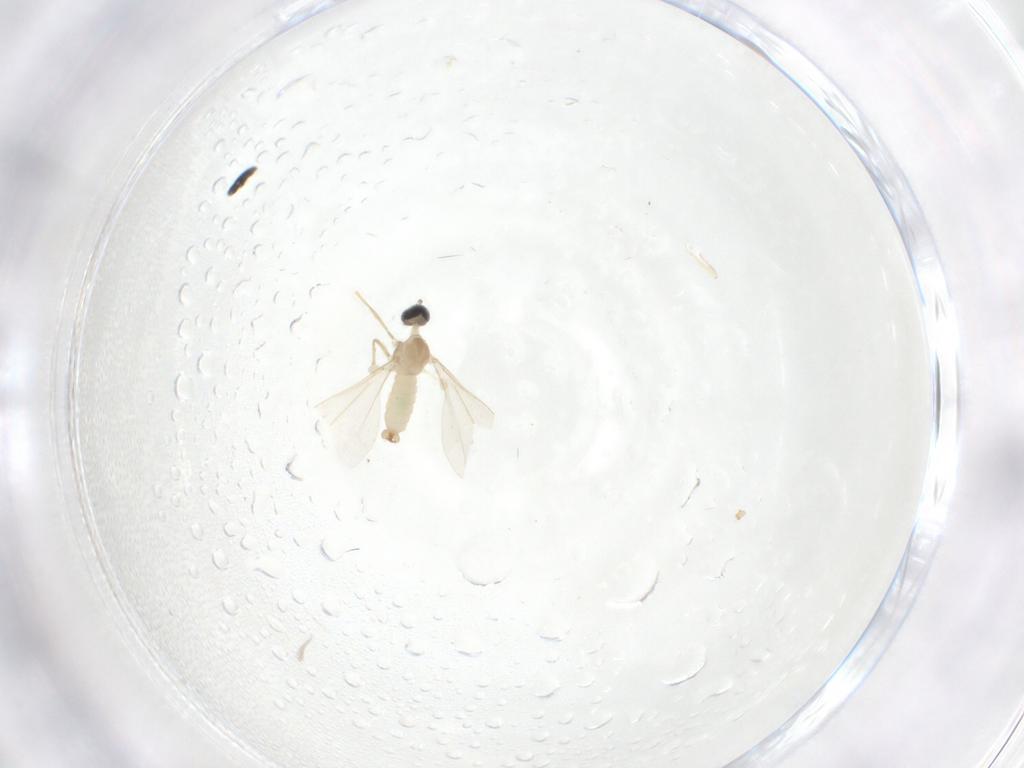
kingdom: Animalia
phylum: Arthropoda
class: Insecta
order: Diptera
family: Cecidomyiidae
